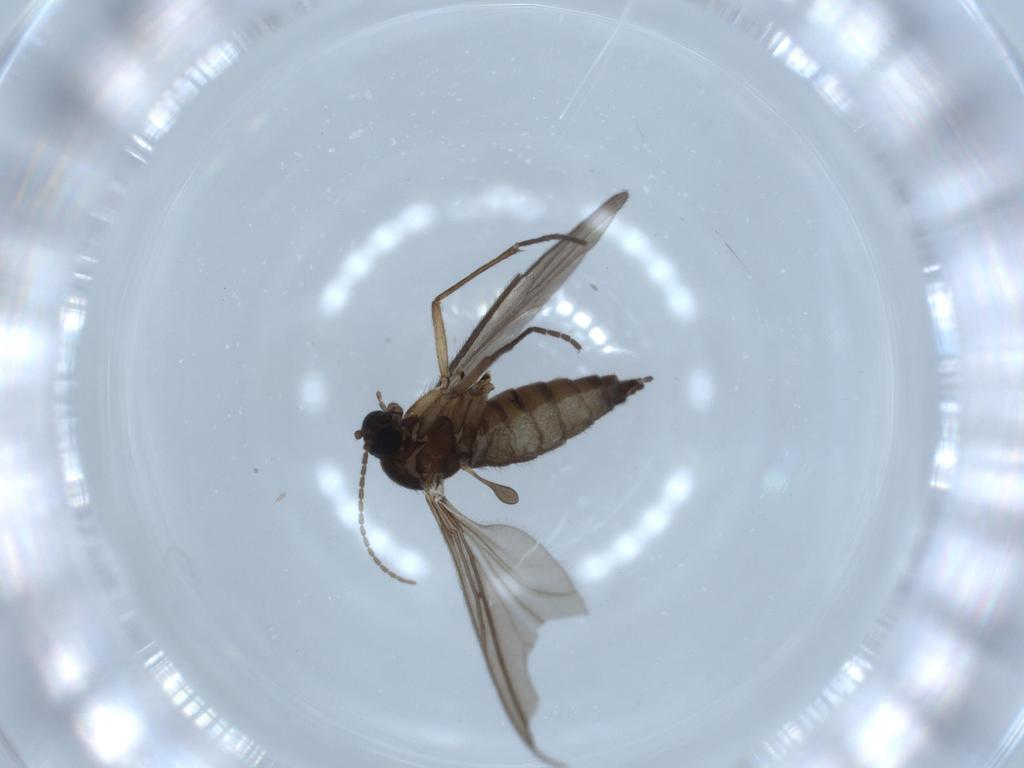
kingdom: Animalia
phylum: Arthropoda
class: Insecta
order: Diptera
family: Sciaridae
